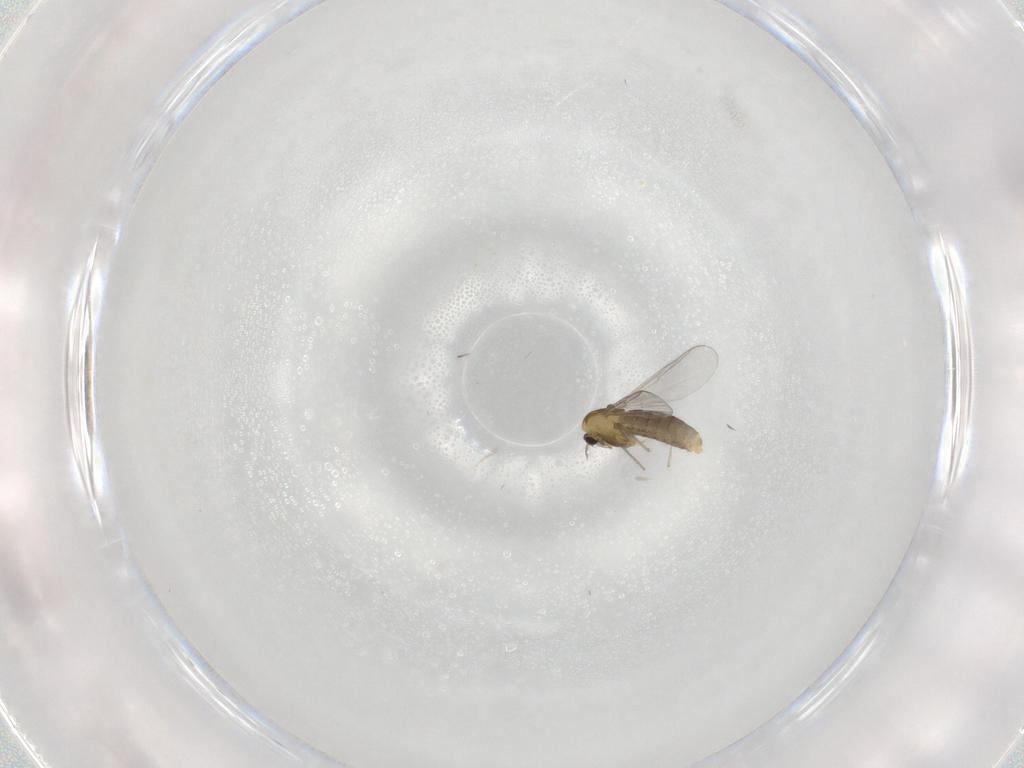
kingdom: Animalia
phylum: Arthropoda
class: Insecta
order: Diptera
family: Chironomidae
